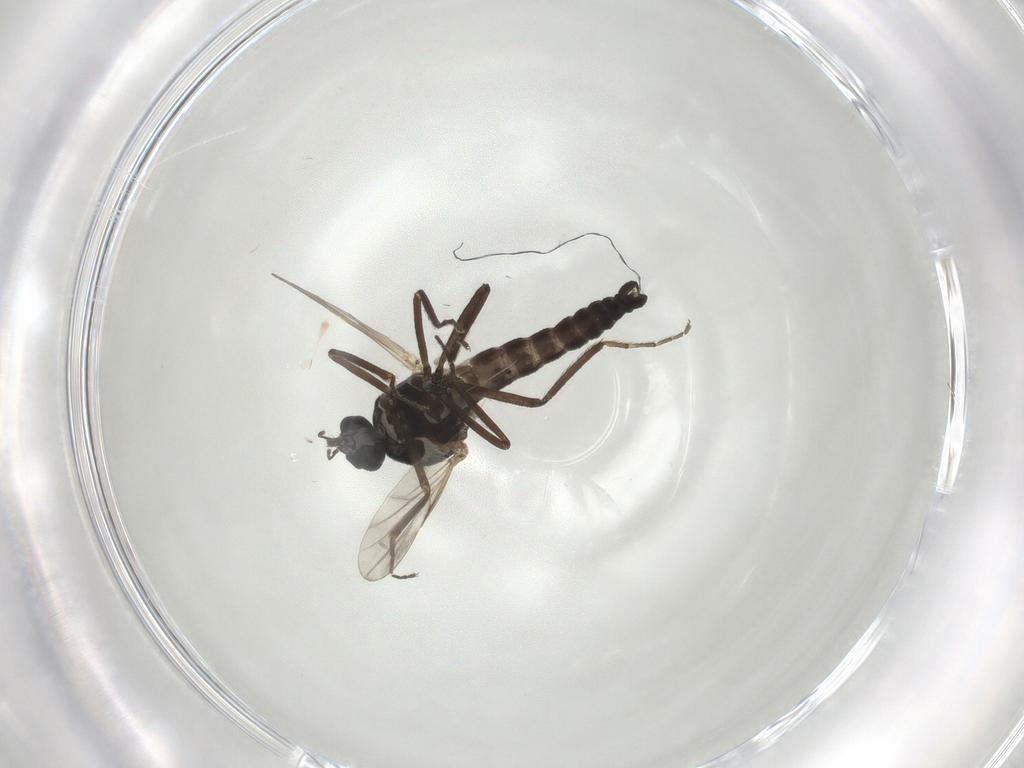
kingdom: Animalia
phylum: Arthropoda
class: Insecta
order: Diptera
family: Ceratopogonidae
